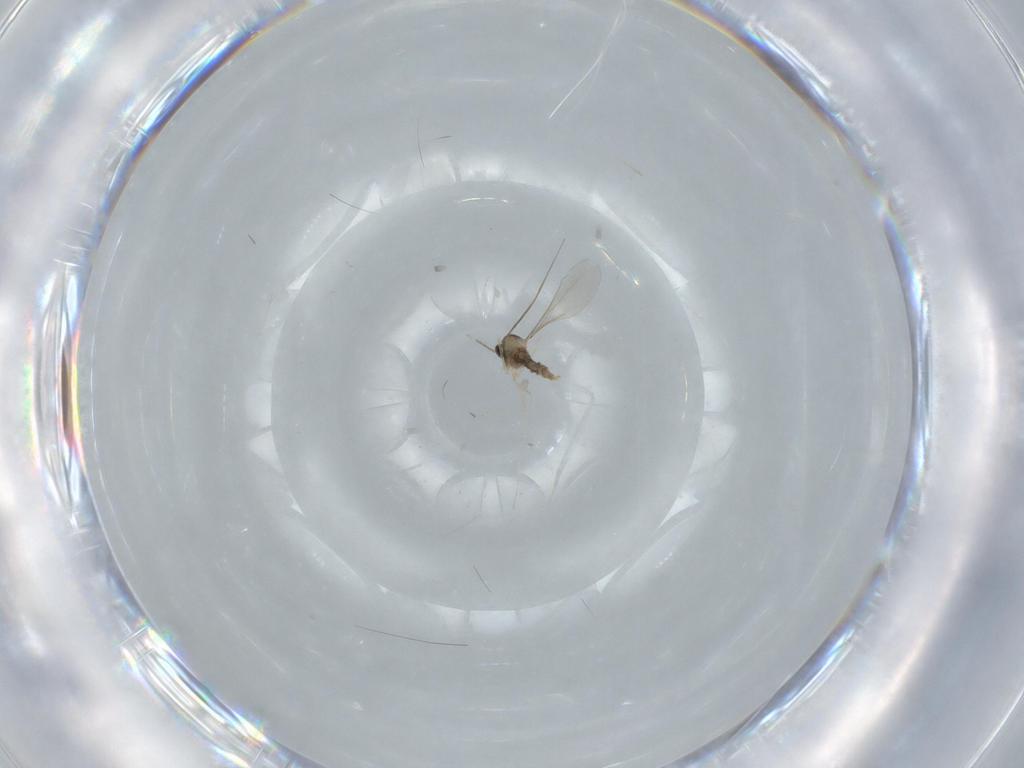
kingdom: Animalia
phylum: Arthropoda
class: Insecta
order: Diptera
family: Cecidomyiidae
